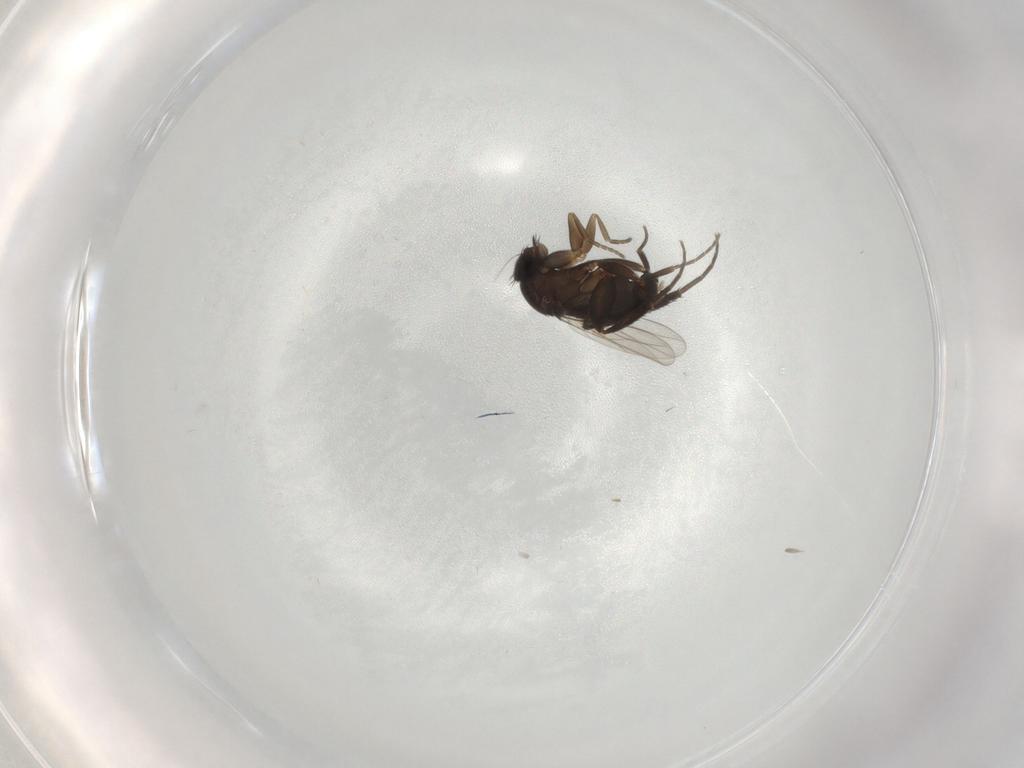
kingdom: Animalia
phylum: Arthropoda
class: Insecta
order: Diptera
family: Phoridae
